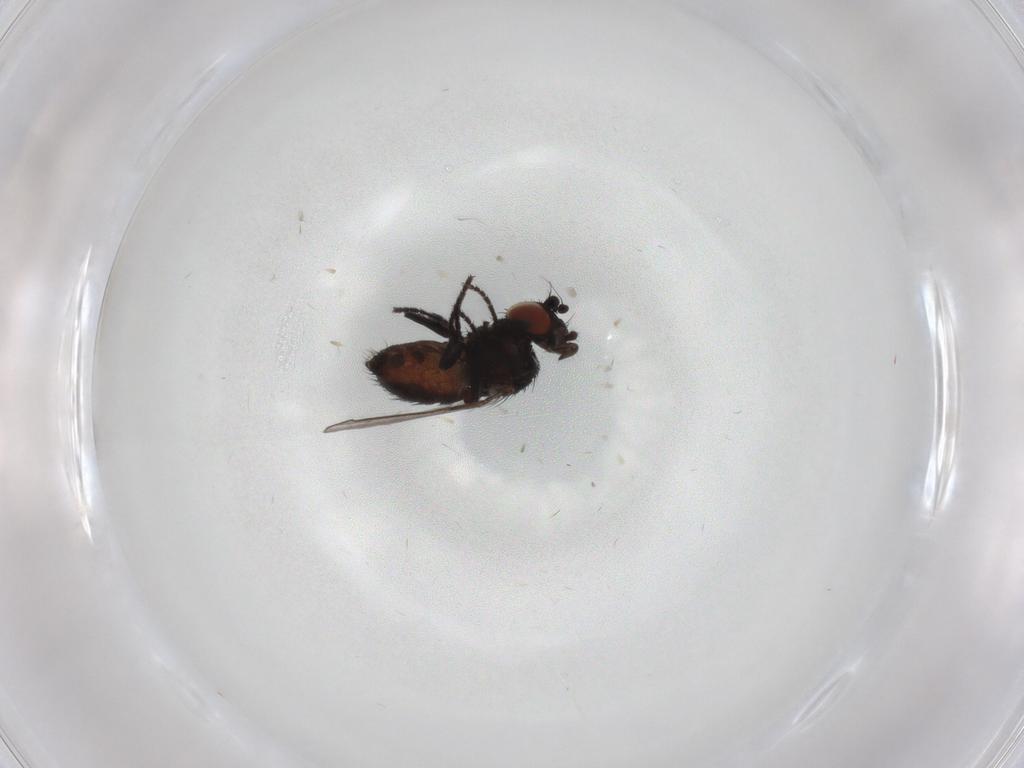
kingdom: Animalia
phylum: Arthropoda
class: Insecta
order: Diptera
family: Milichiidae
